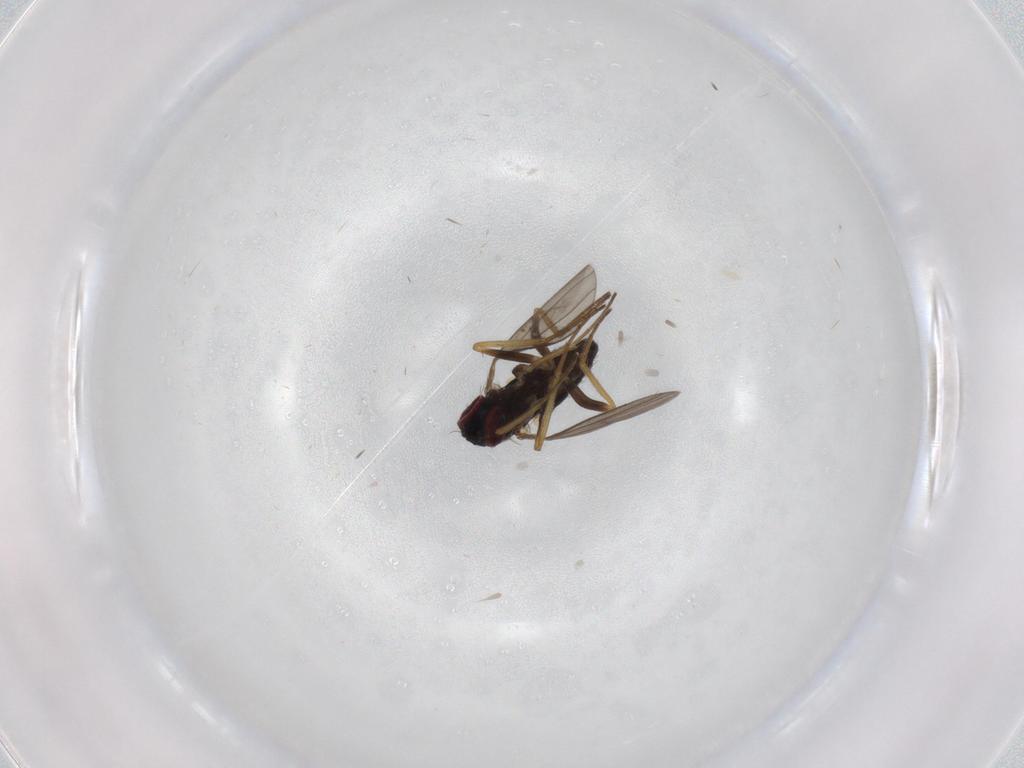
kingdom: Animalia
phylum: Arthropoda
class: Insecta
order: Diptera
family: Dolichopodidae
